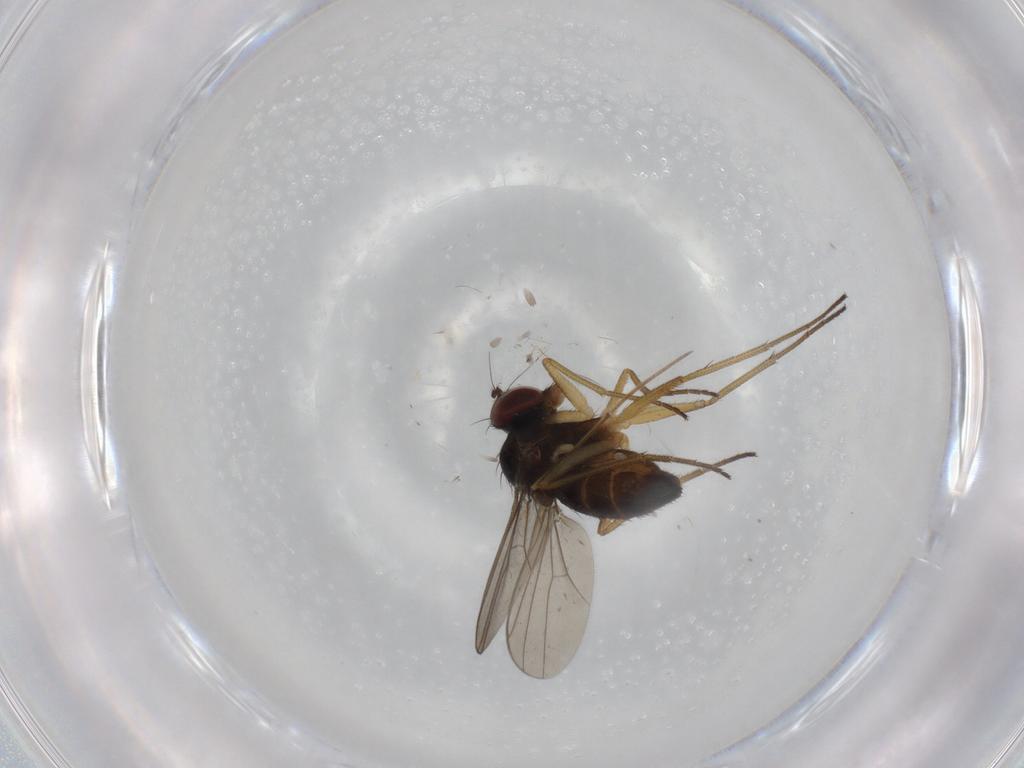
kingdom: Animalia
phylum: Arthropoda
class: Insecta
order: Diptera
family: Dolichopodidae
